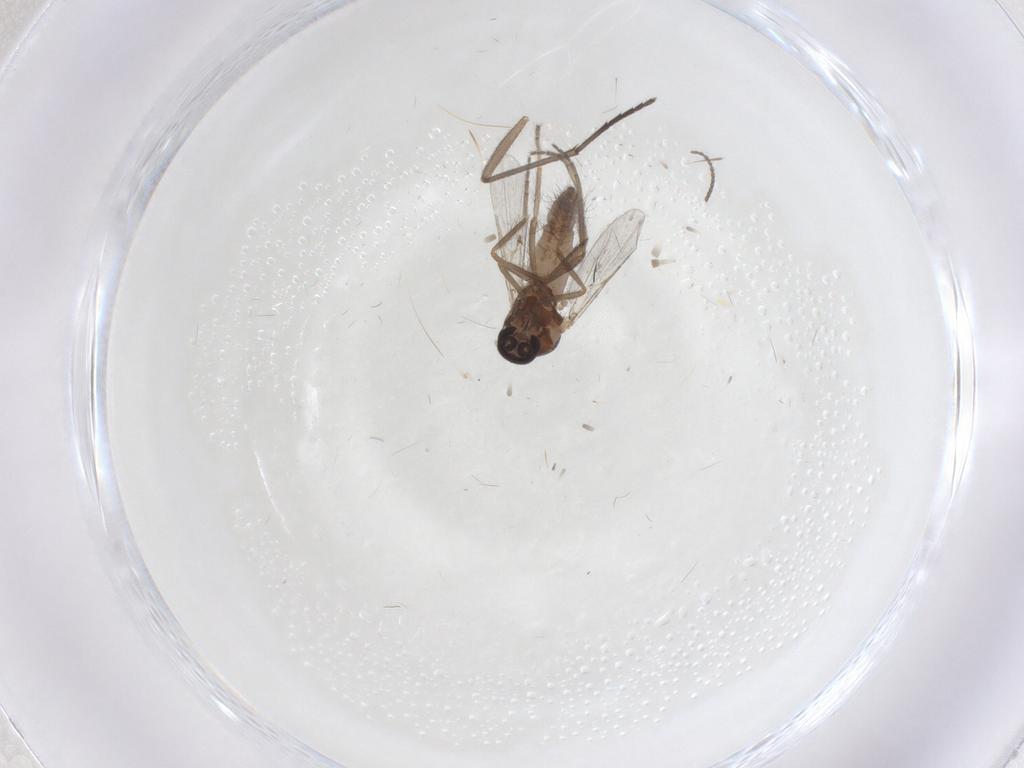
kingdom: Animalia
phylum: Arthropoda
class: Insecta
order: Diptera
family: Ceratopogonidae
